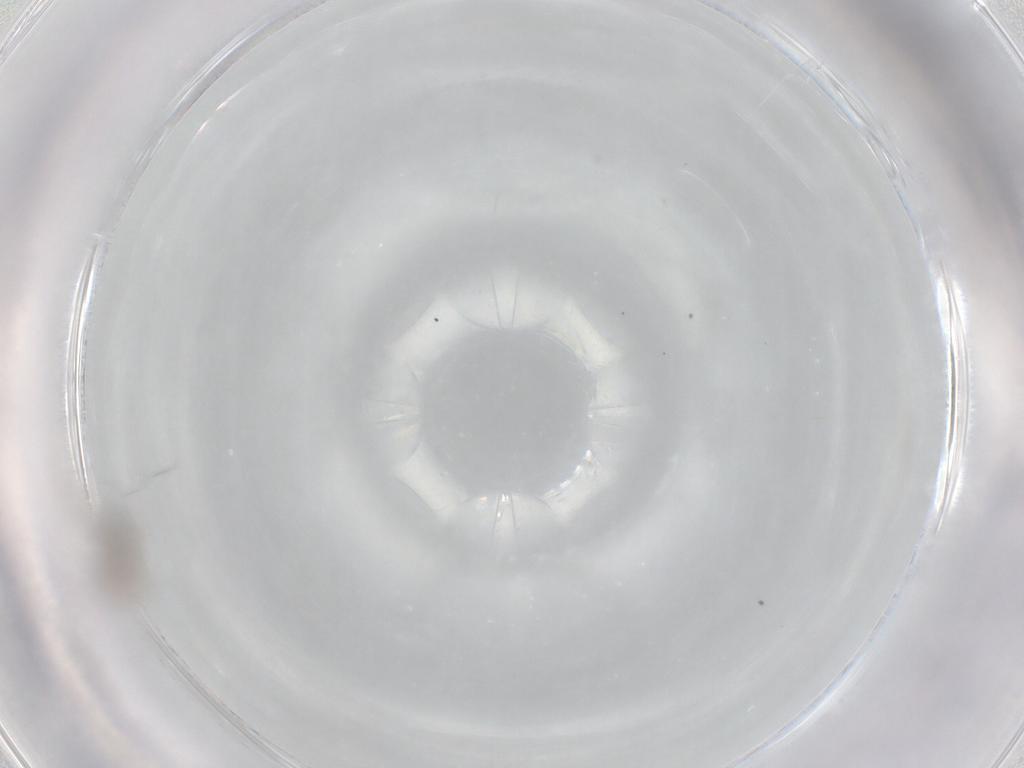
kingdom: Animalia
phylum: Arthropoda
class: Insecta
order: Diptera
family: Cecidomyiidae
